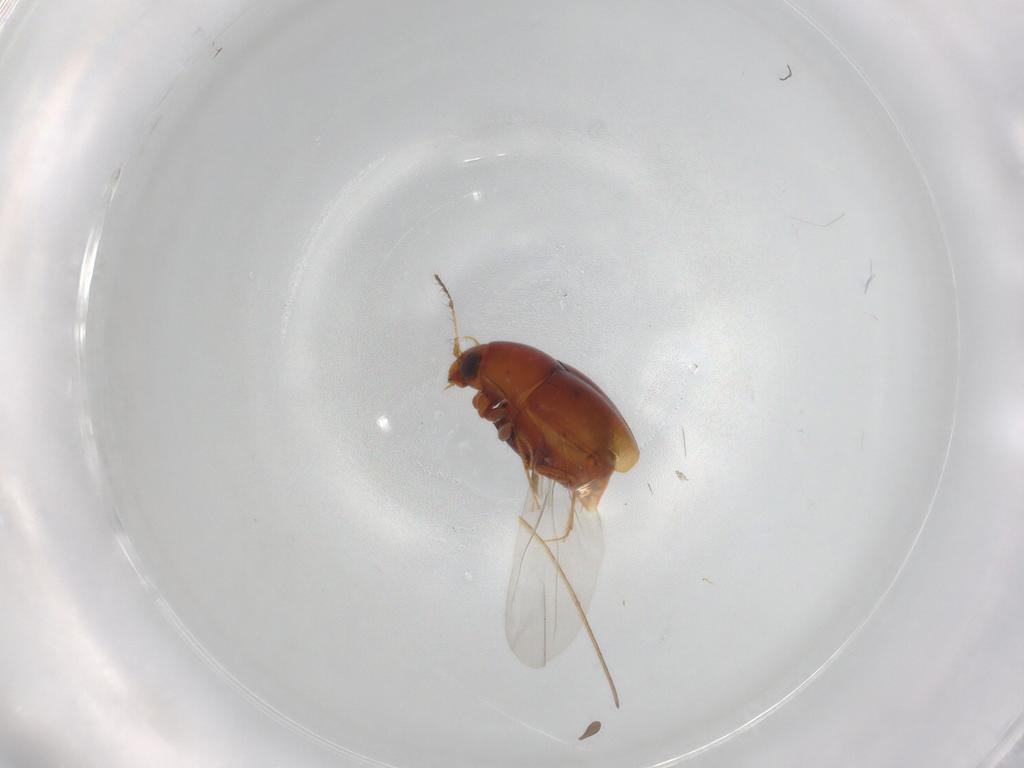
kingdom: Animalia
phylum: Arthropoda
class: Insecta
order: Coleoptera
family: Staphylinidae
